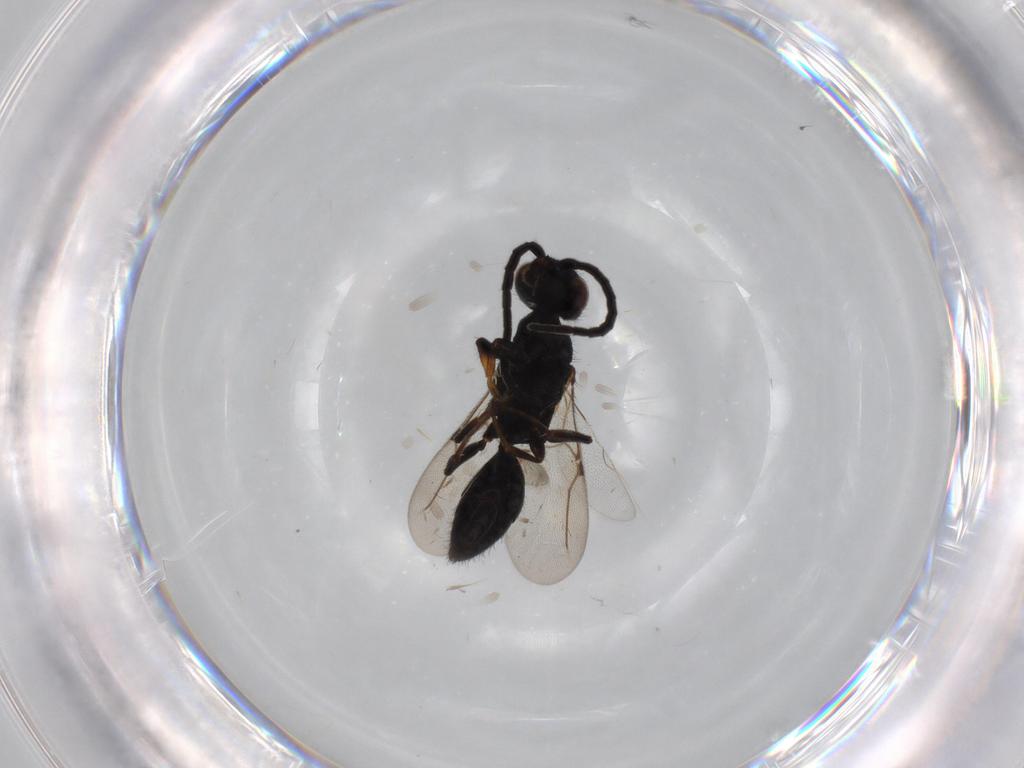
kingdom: Animalia
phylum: Arthropoda
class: Insecta
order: Hymenoptera
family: Bethylidae
